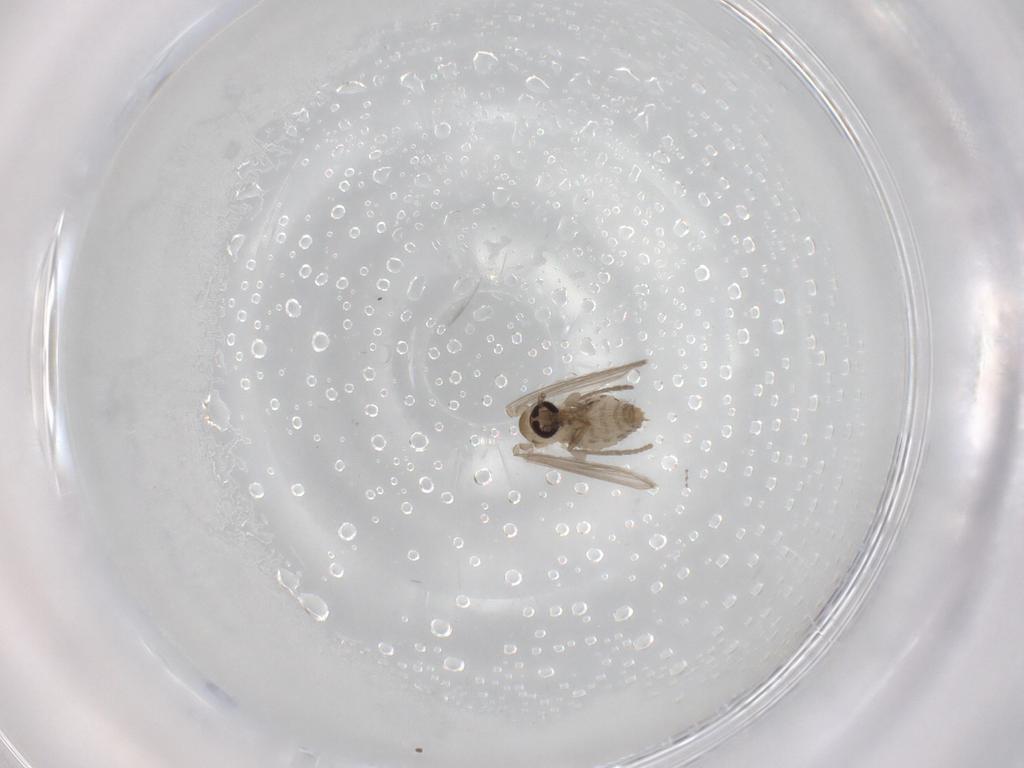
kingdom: Animalia
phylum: Arthropoda
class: Insecta
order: Diptera
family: Psychodidae
